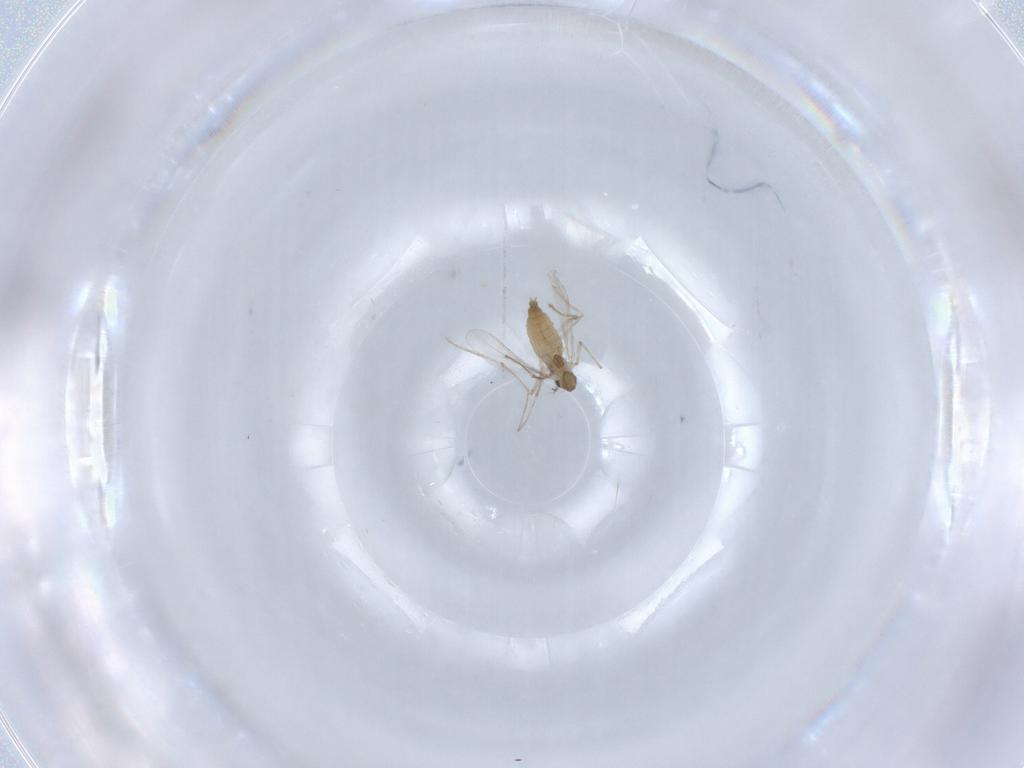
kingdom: Animalia
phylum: Arthropoda
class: Insecta
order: Diptera
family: Chironomidae
